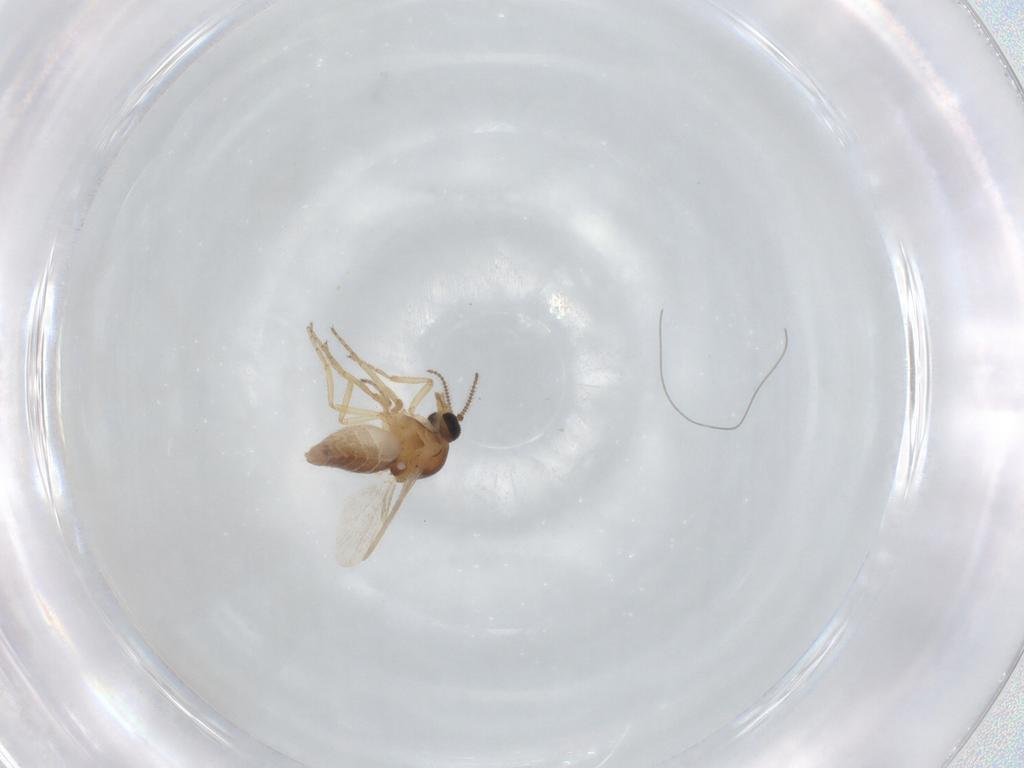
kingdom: Animalia
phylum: Arthropoda
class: Insecta
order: Diptera
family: Ceratopogonidae
